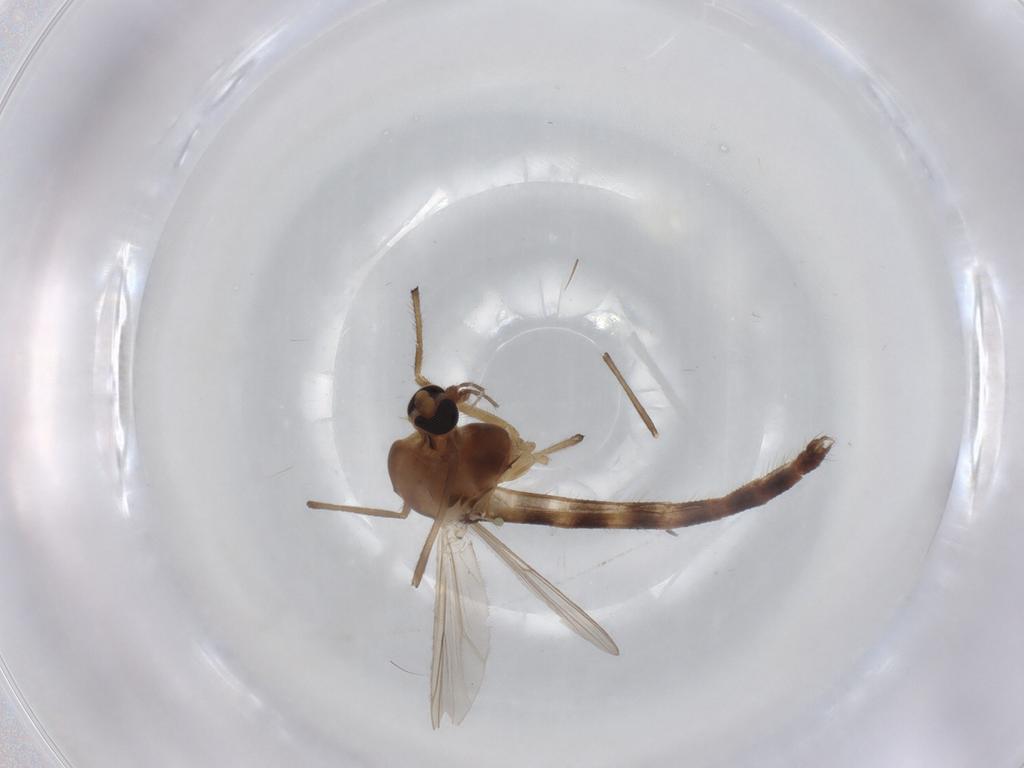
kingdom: Animalia
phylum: Arthropoda
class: Insecta
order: Diptera
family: Chironomidae
